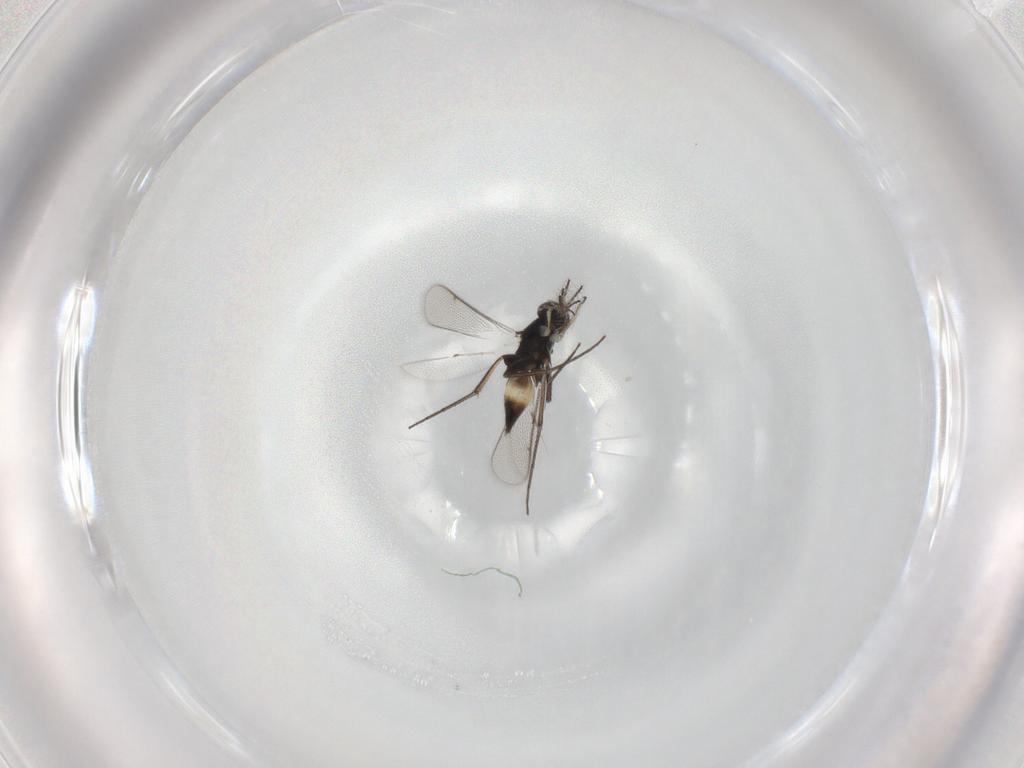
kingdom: Animalia
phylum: Arthropoda
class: Insecta
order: Hymenoptera
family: Eulophidae
